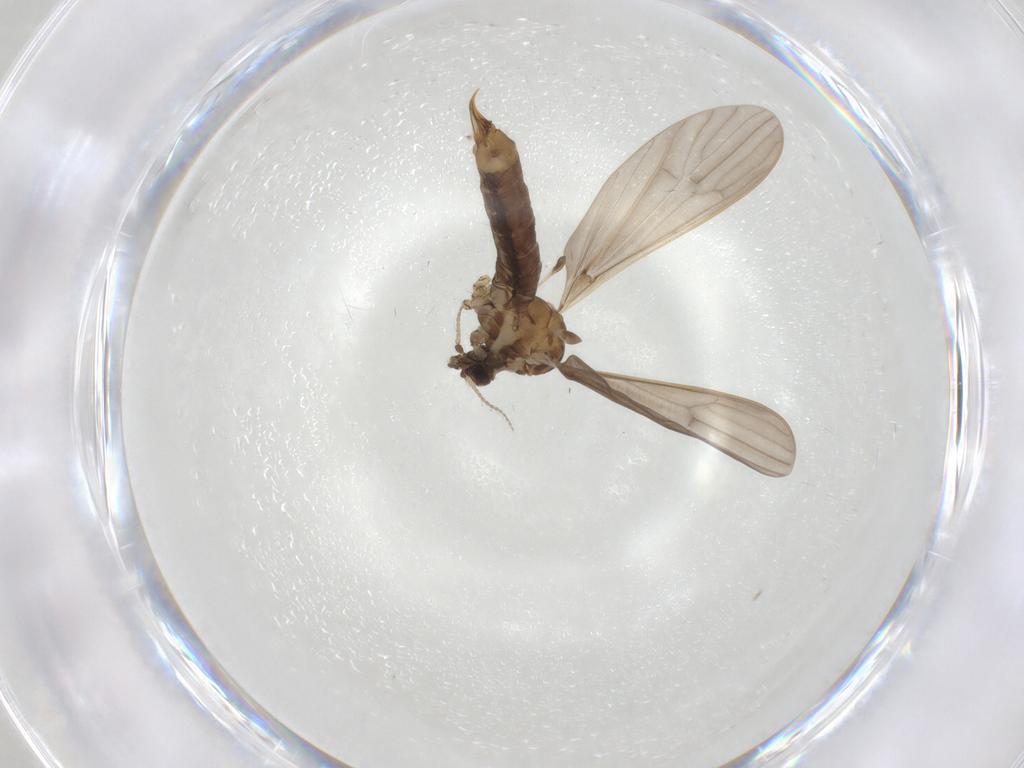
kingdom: Animalia
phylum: Arthropoda
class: Insecta
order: Diptera
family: Limoniidae
